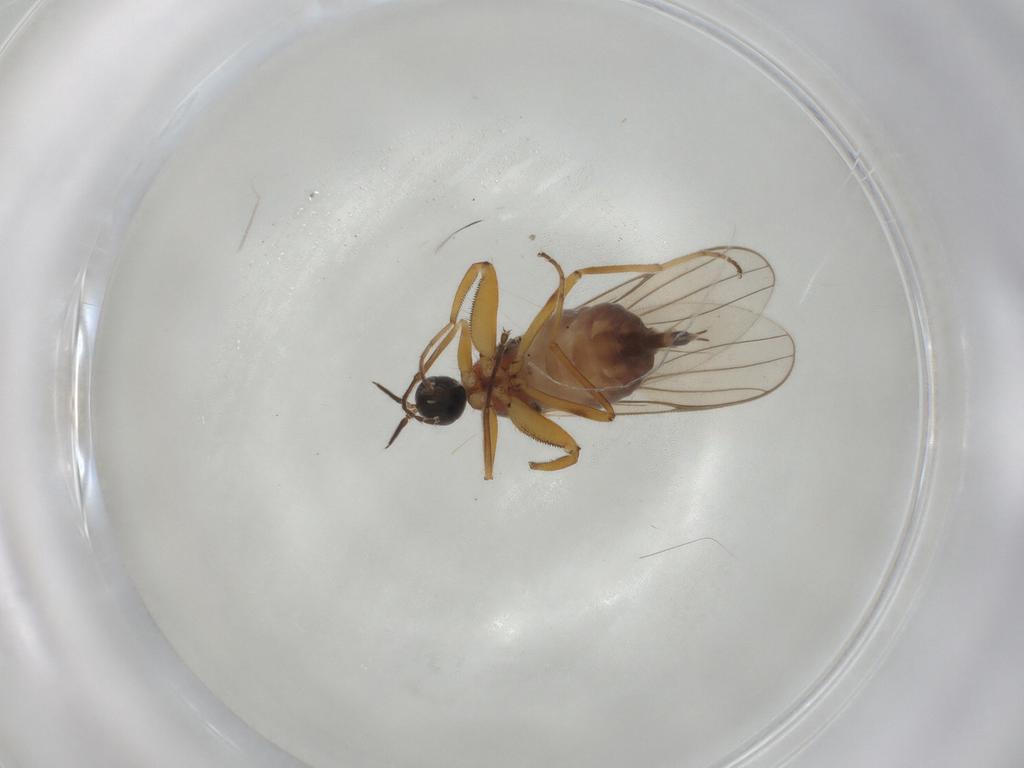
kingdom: Animalia
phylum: Arthropoda
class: Insecta
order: Diptera
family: Hybotidae
